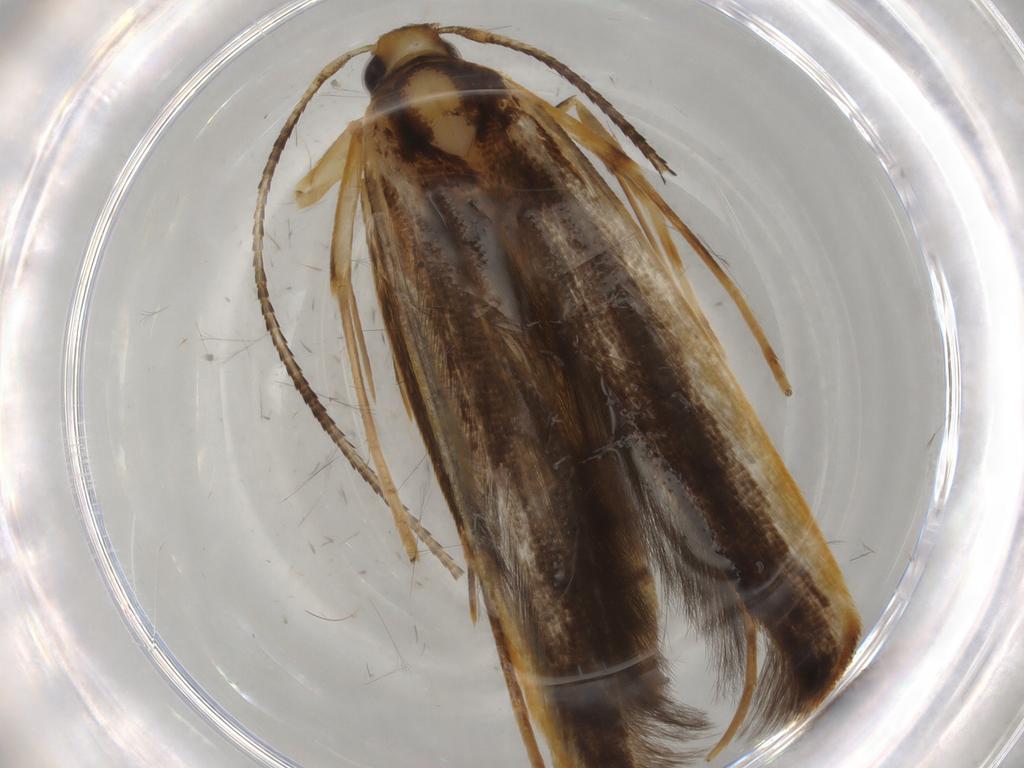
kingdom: Animalia
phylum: Arthropoda
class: Insecta
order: Lepidoptera
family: Pterolonchidae
